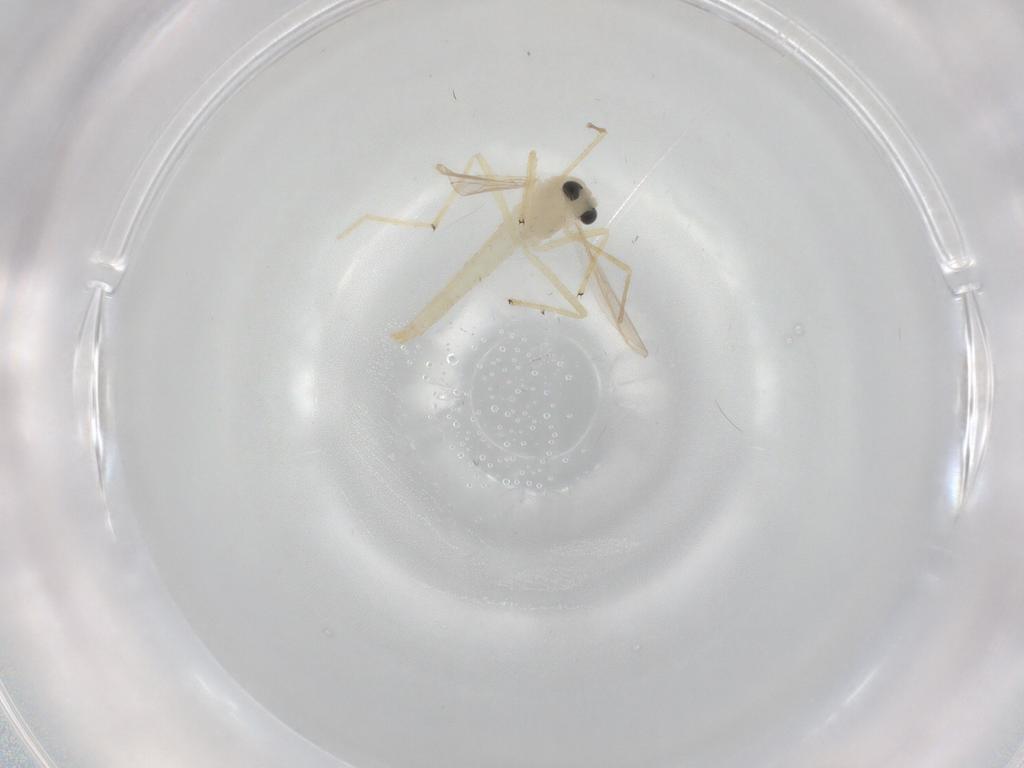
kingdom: Animalia
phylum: Arthropoda
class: Insecta
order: Diptera
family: Chironomidae
